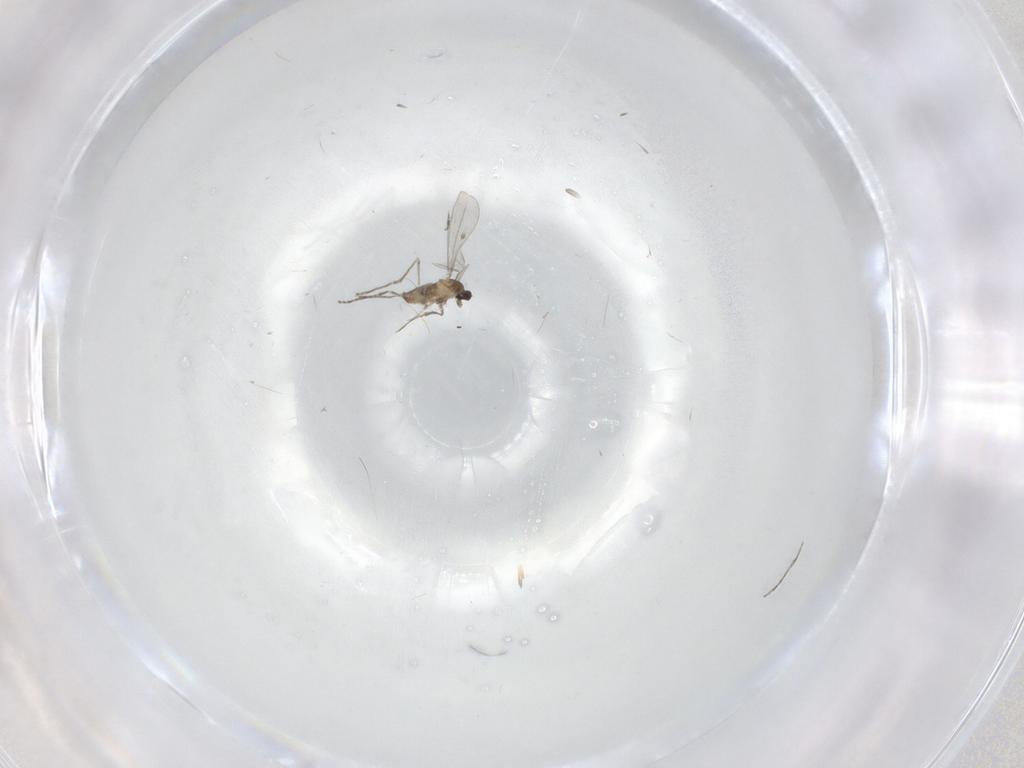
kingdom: Animalia
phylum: Arthropoda
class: Insecta
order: Diptera
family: Cecidomyiidae
